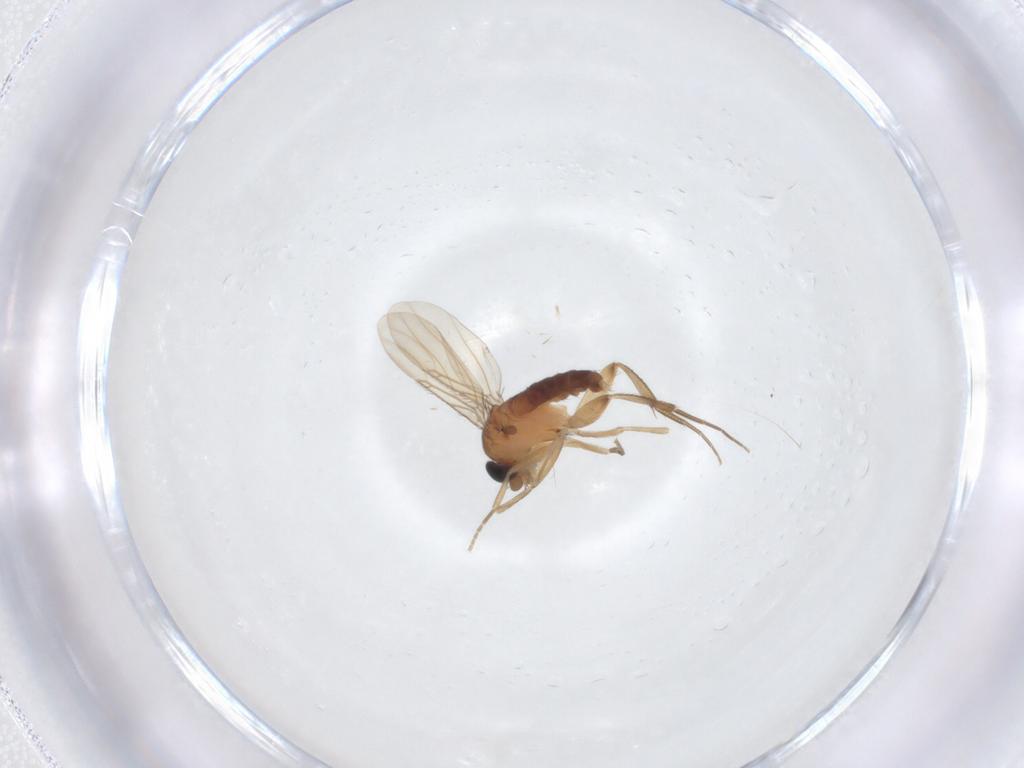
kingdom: Animalia
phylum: Arthropoda
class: Insecta
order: Diptera
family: Phoridae
